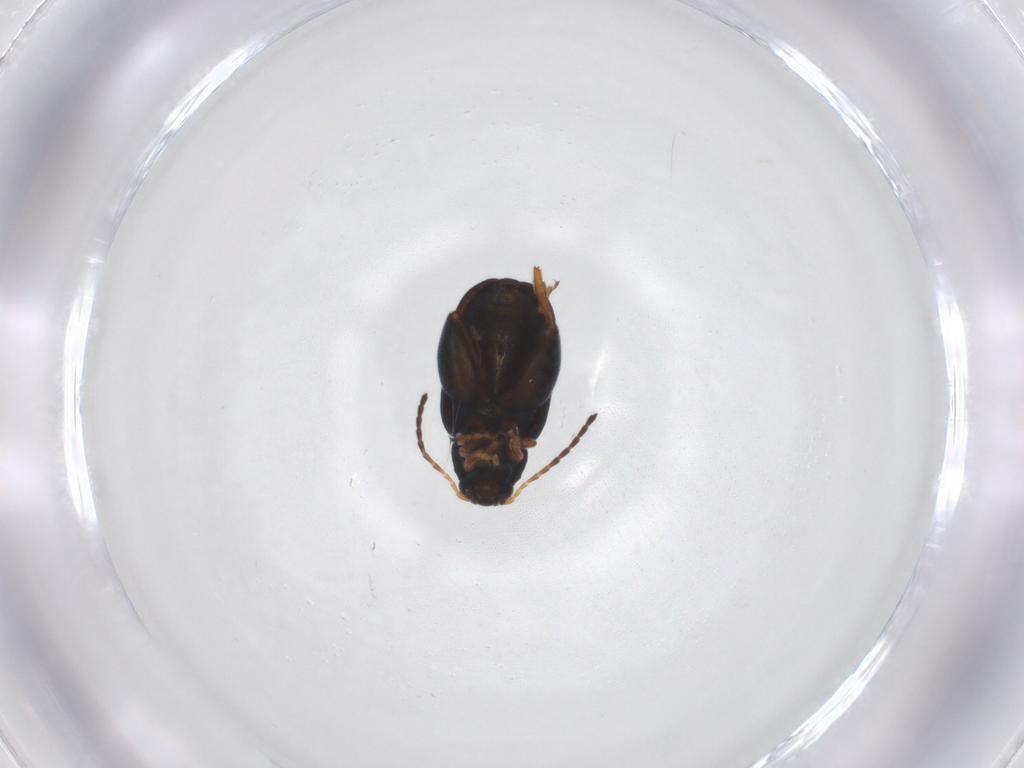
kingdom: Animalia
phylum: Arthropoda
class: Insecta
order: Coleoptera
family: Chrysomelidae
